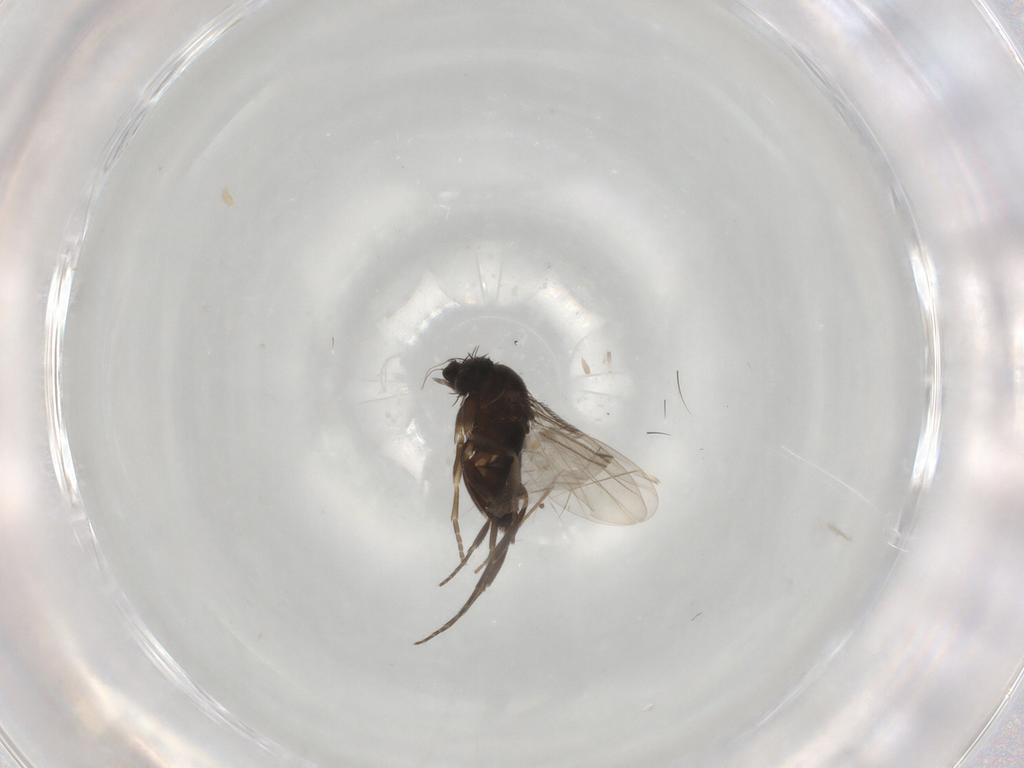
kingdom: Animalia
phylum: Arthropoda
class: Insecta
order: Diptera
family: Phoridae
